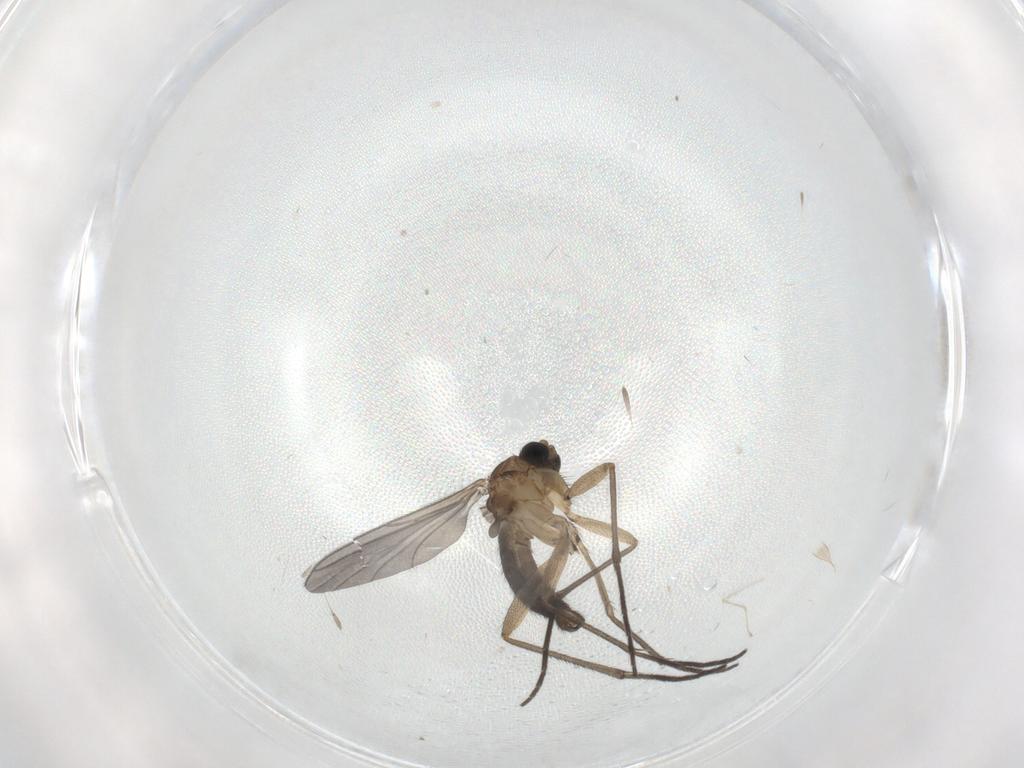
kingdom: Animalia
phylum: Arthropoda
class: Insecta
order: Diptera
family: Sciaridae
